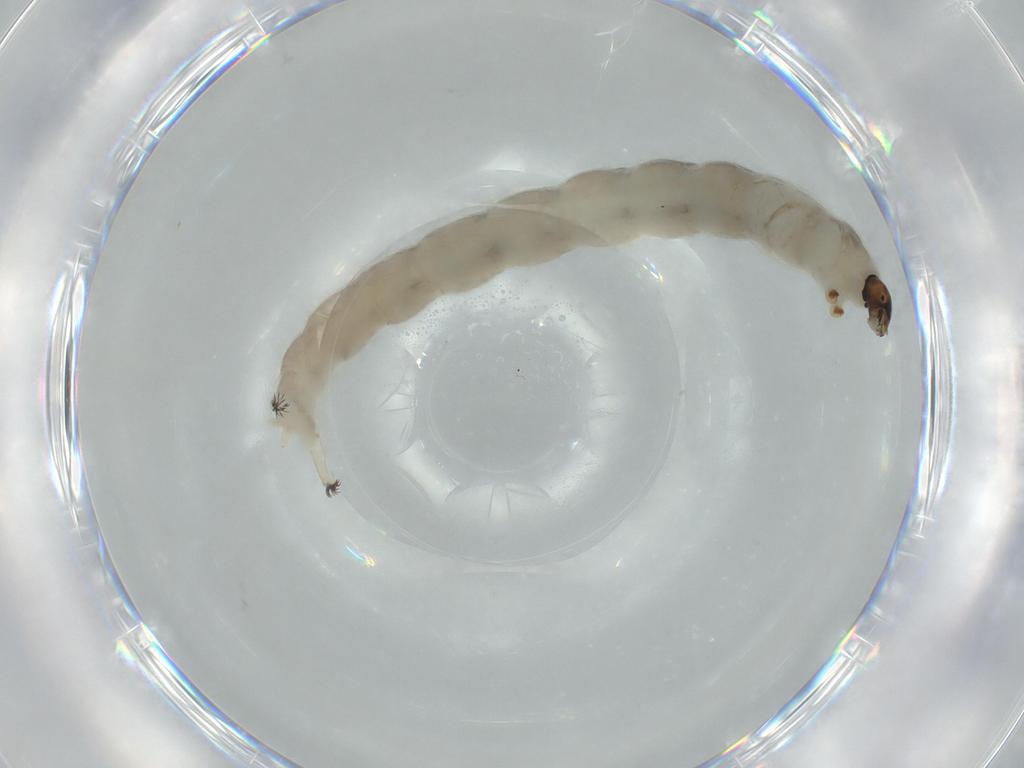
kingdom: Animalia
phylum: Arthropoda
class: Insecta
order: Diptera
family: Chironomidae
